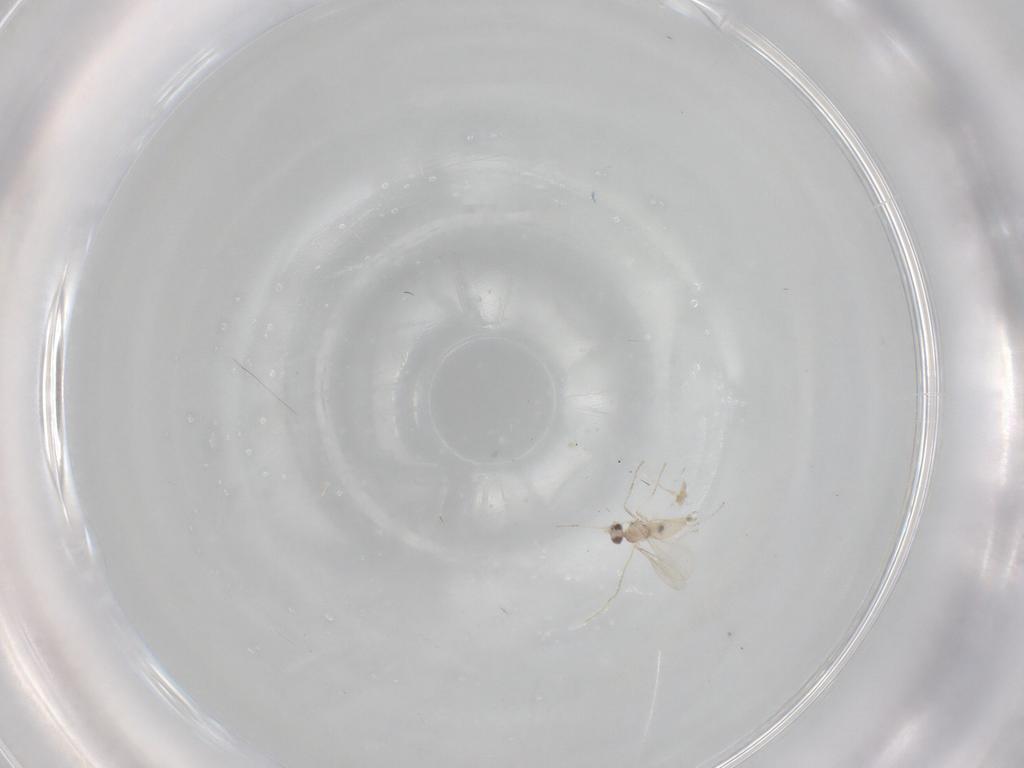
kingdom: Animalia
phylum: Arthropoda
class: Insecta
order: Diptera
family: Cecidomyiidae
